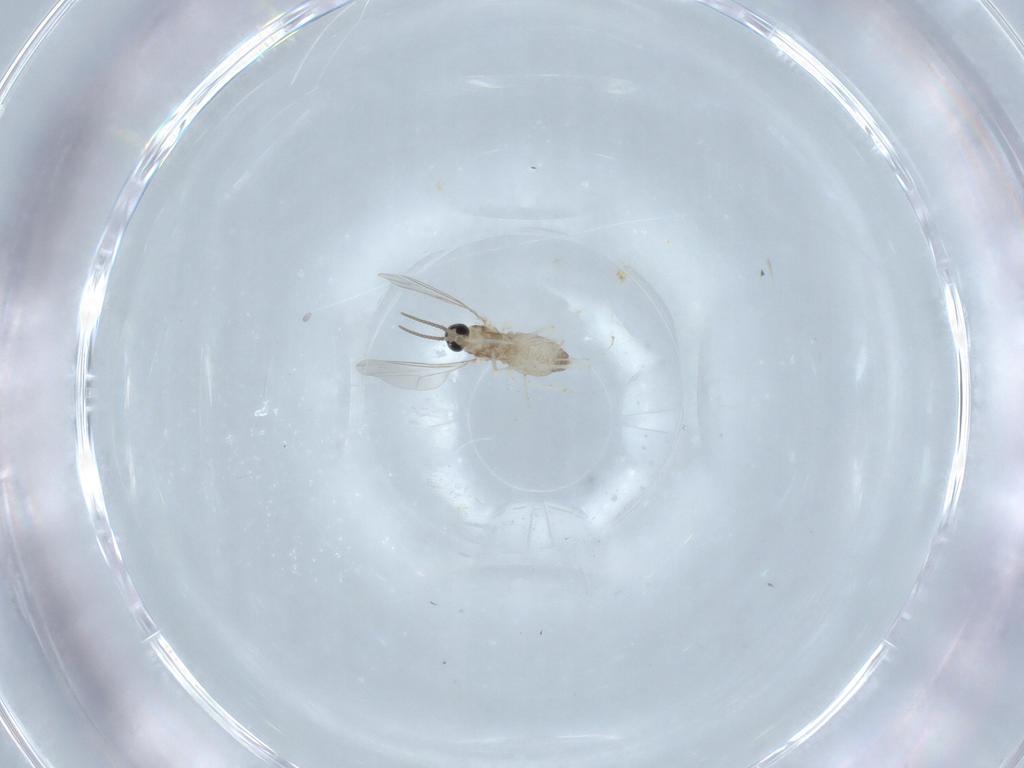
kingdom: Animalia
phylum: Arthropoda
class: Insecta
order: Diptera
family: Cecidomyiidae
